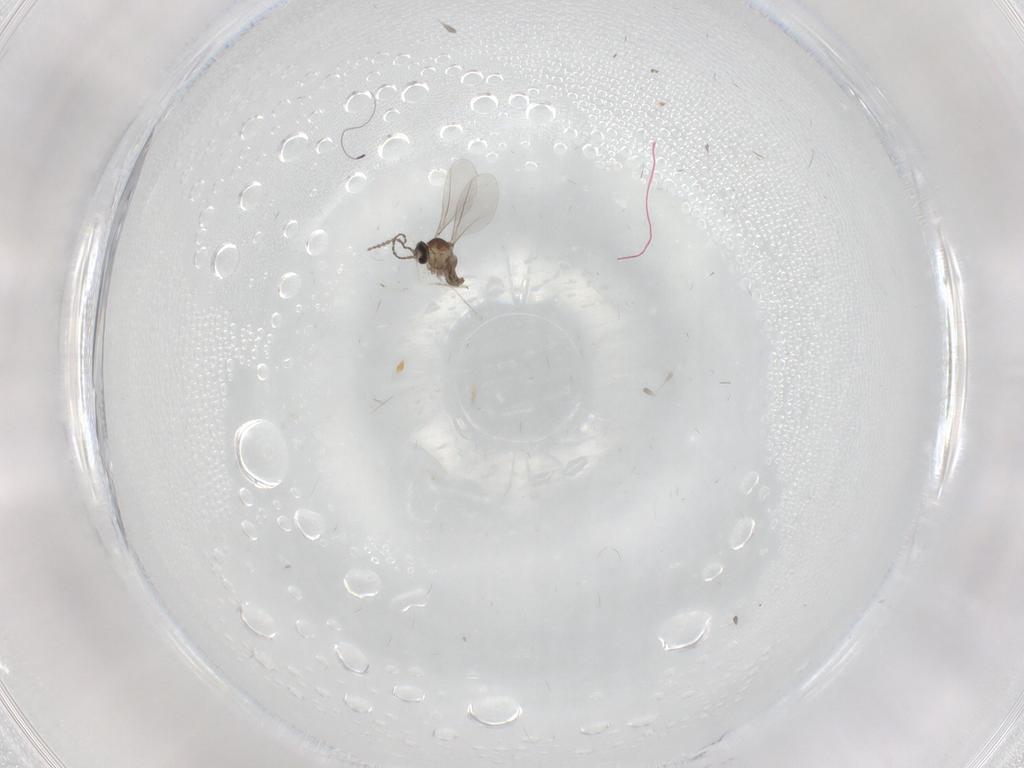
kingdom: Animalia
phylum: Arthropoda
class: Insecta
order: Diptera
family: Cecidomyiidae
